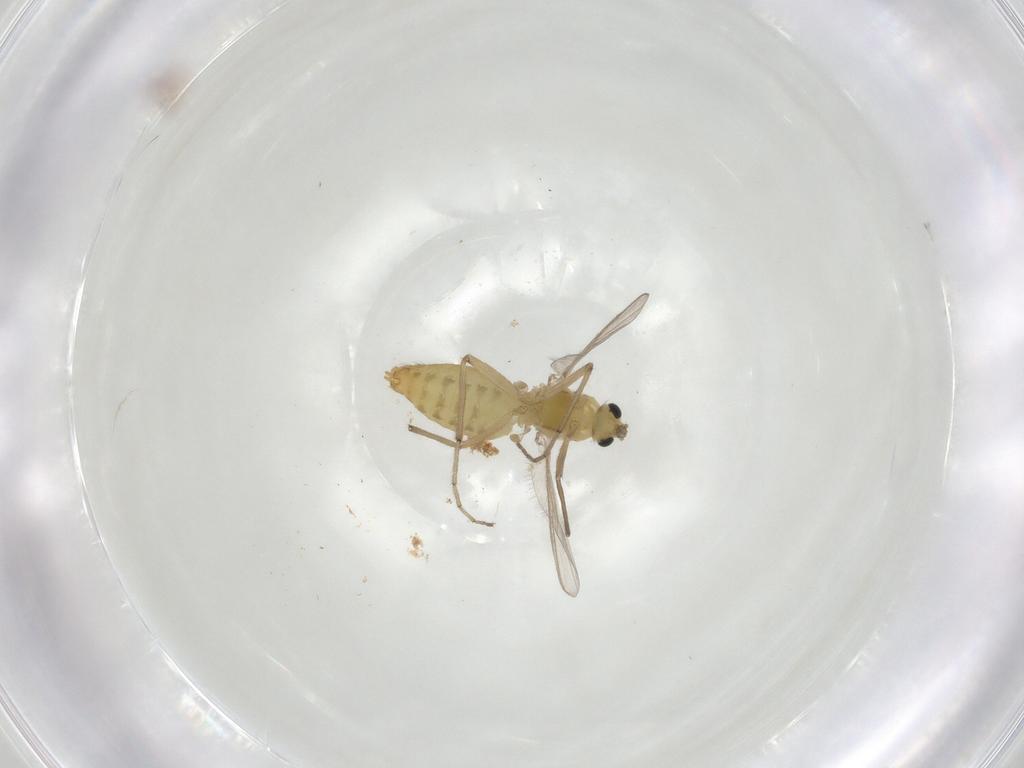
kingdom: Animalia
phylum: Arthropoda
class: Insecta
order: Diptera
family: Chironomidae
